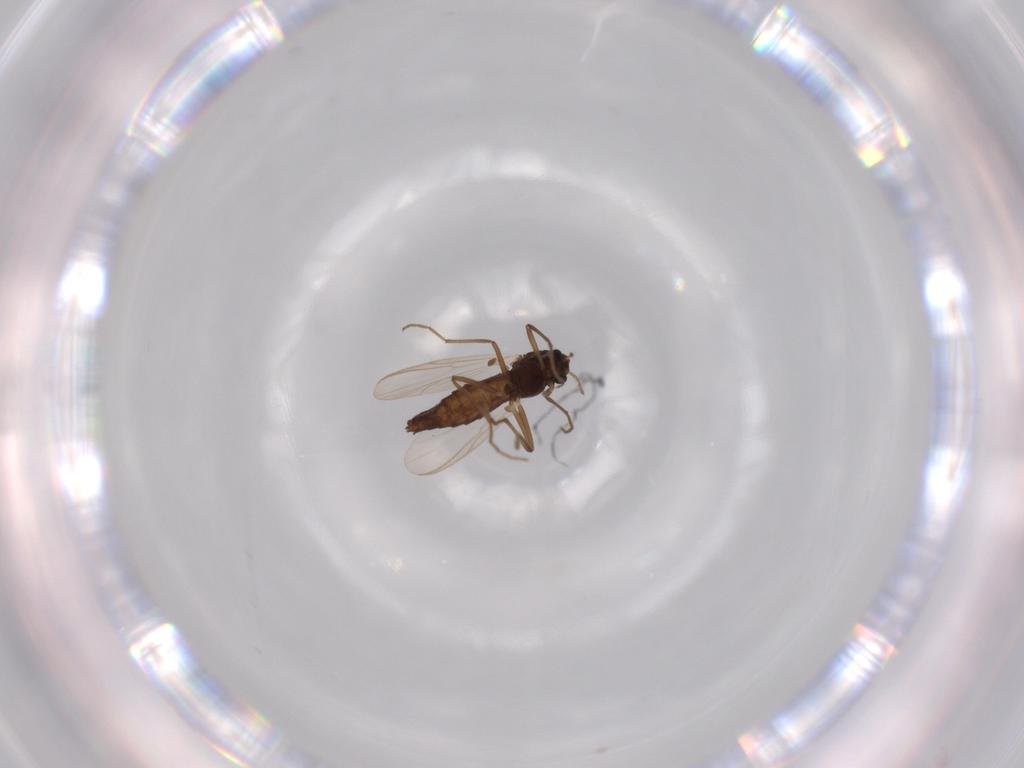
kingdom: Animalia
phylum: Arthropoda
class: Insecta
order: Diptera
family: Chironomidae
